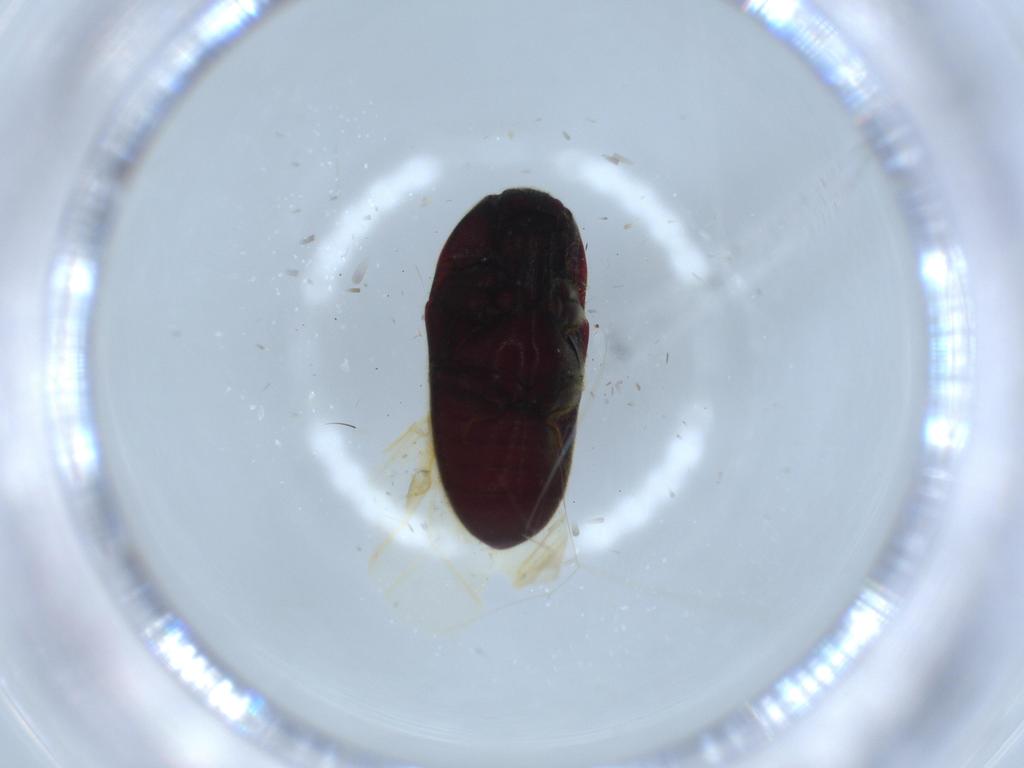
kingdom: Animalia
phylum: Arthropoda
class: Insecta
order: Coleoptera
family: Throscidae
